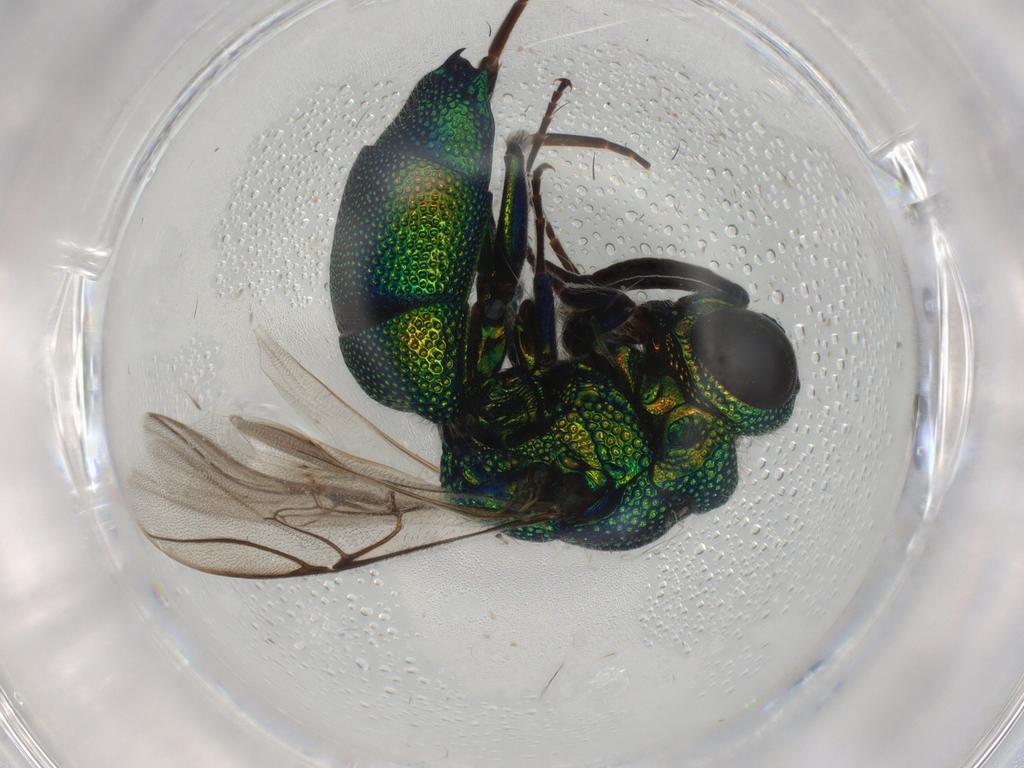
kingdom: Animalia
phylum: Arthropoda
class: Insecta
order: Hymenoptera
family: Chrysididae
